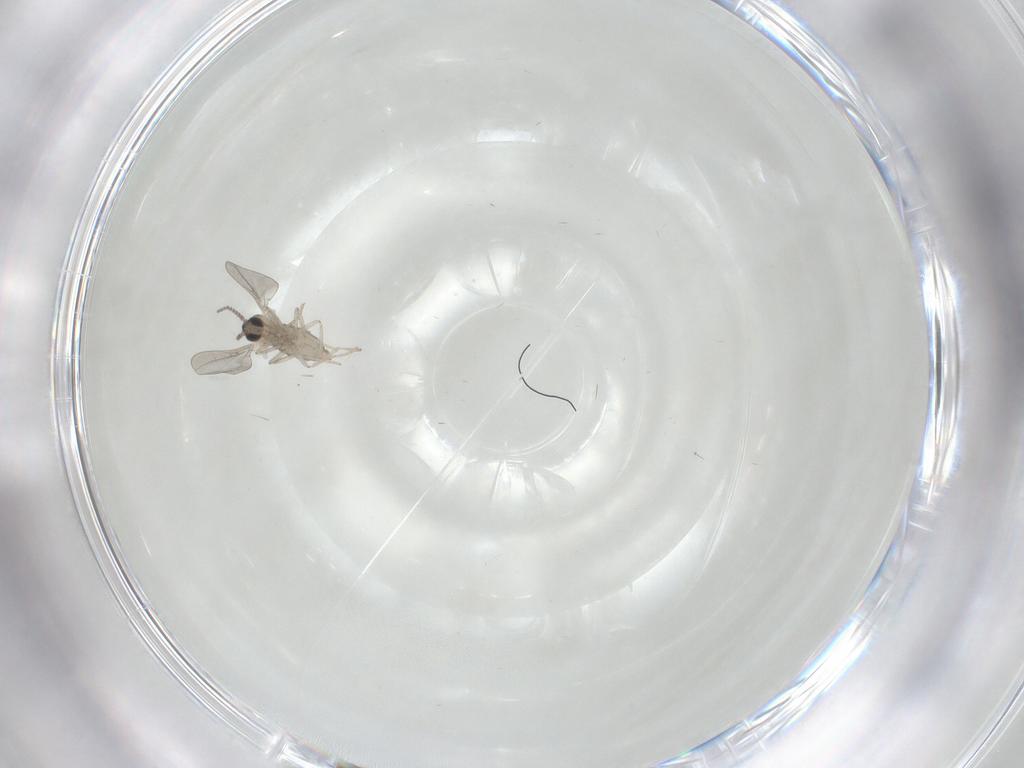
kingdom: Animalia
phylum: Arthropoda
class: Insecta
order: Diptera
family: Cecidomyiidae
